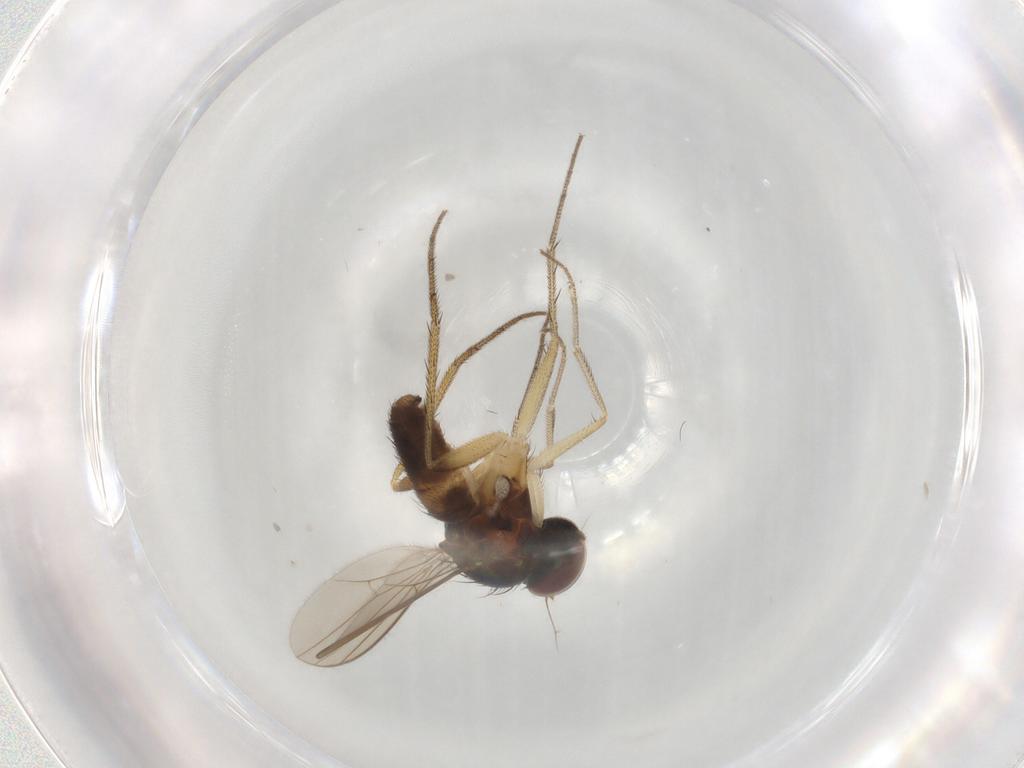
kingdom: Animalia
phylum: Arthropoda
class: Insecta
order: Diptera
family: Dolichopodidae
